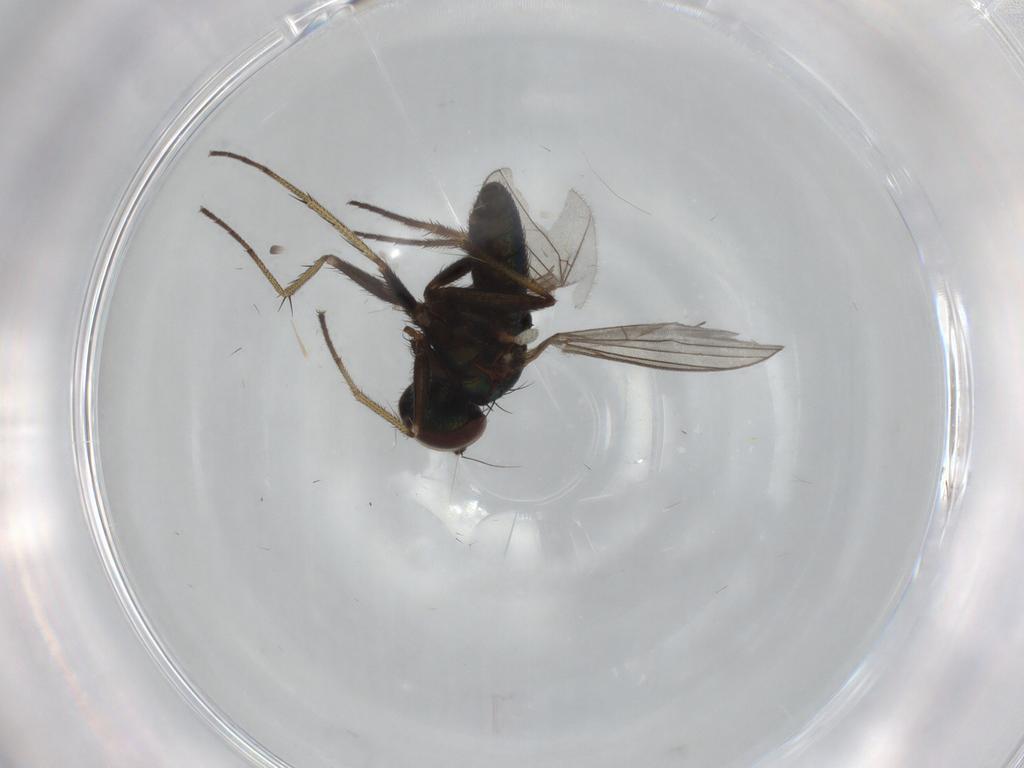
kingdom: Animalia
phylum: Arthropoda
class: Insecta
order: Diptera
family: Dolichopodidae
